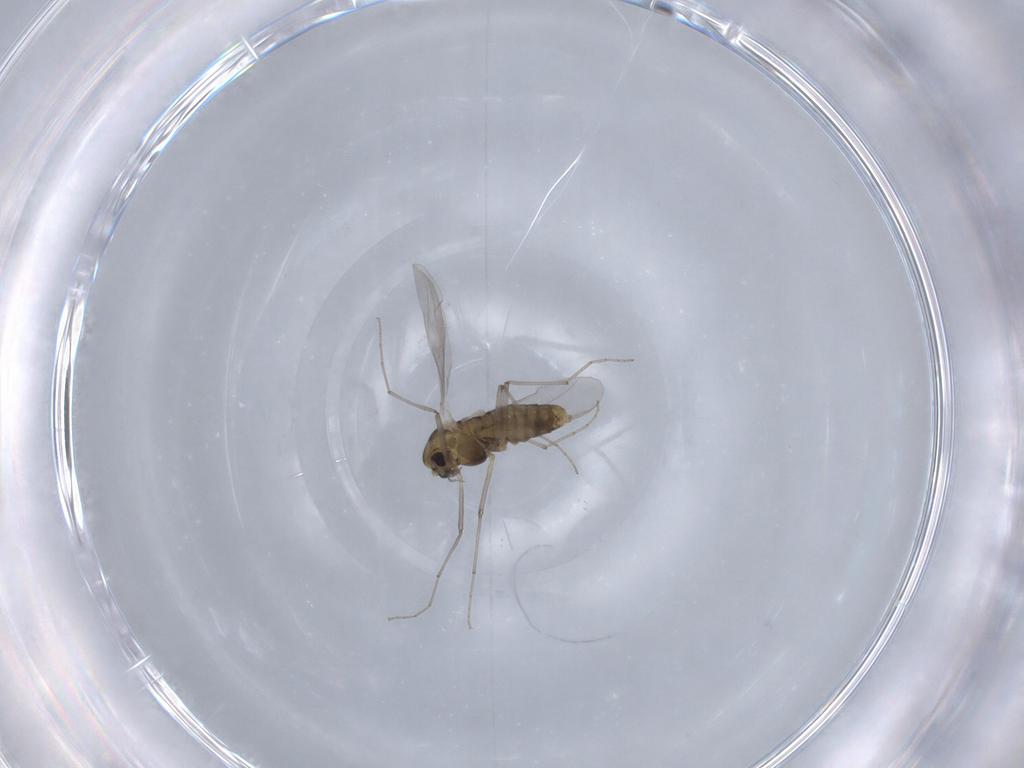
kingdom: Animalia
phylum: Arthropoda
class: Insecta
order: Diptera
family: Chironomidae
